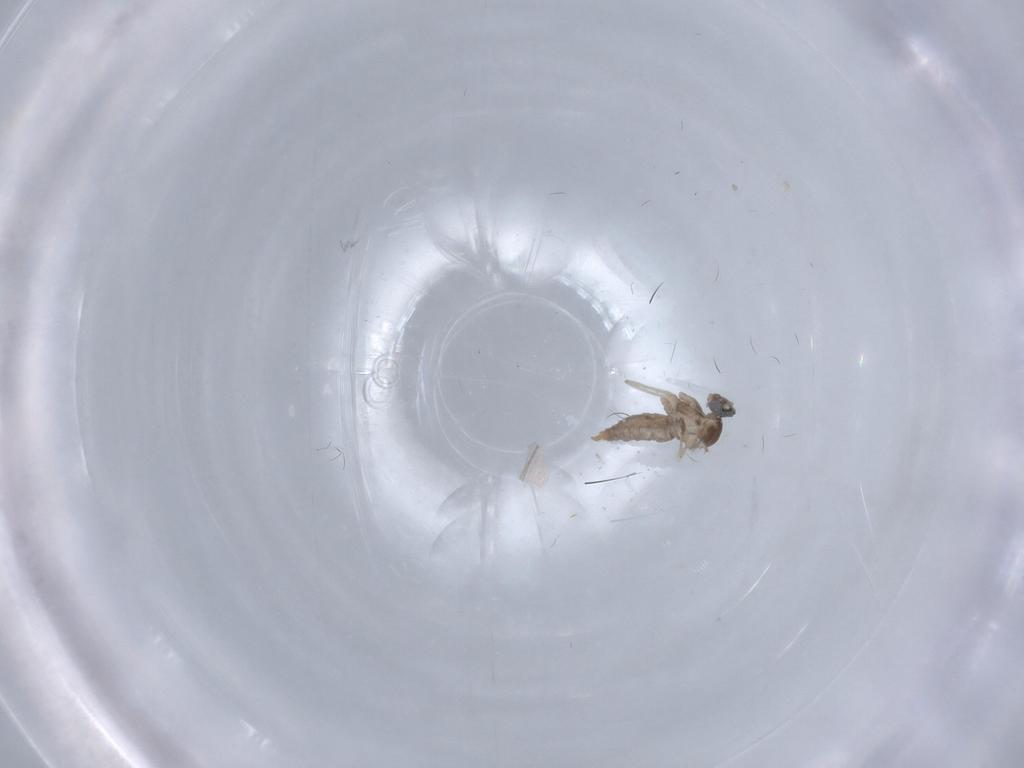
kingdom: Animalia
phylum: Arthropoda
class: Insecta
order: Diptera
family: Cecidomyiidae
